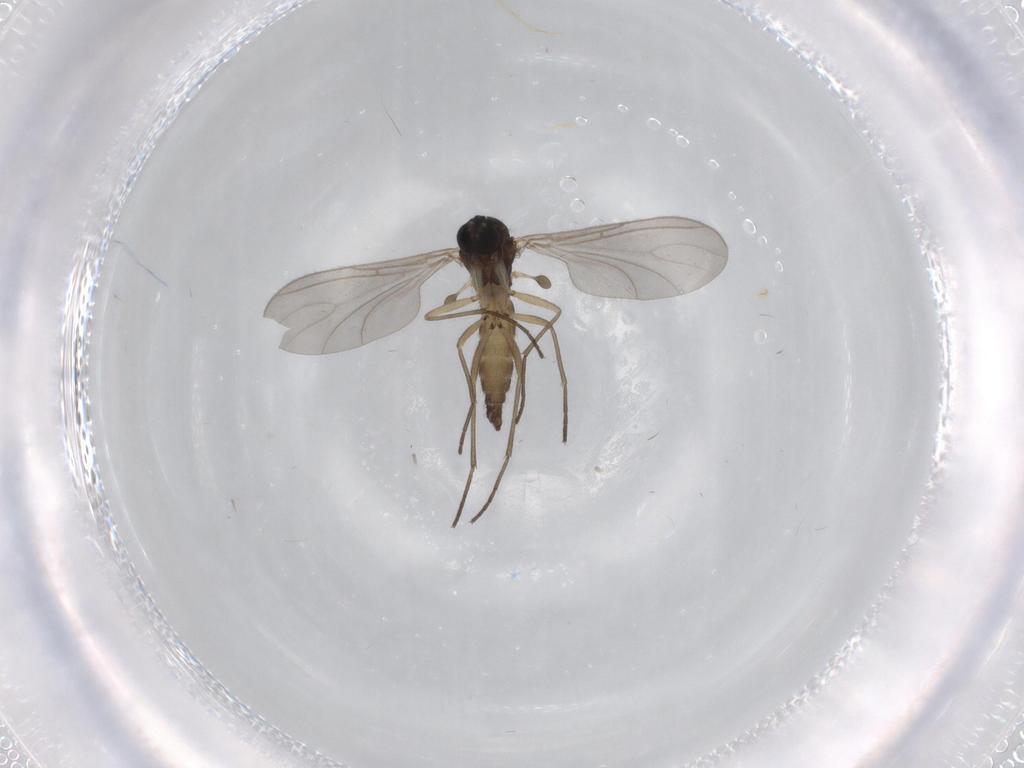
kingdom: Animalia
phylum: Arthropoda
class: Insecta
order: Diptera
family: Sciaridae
